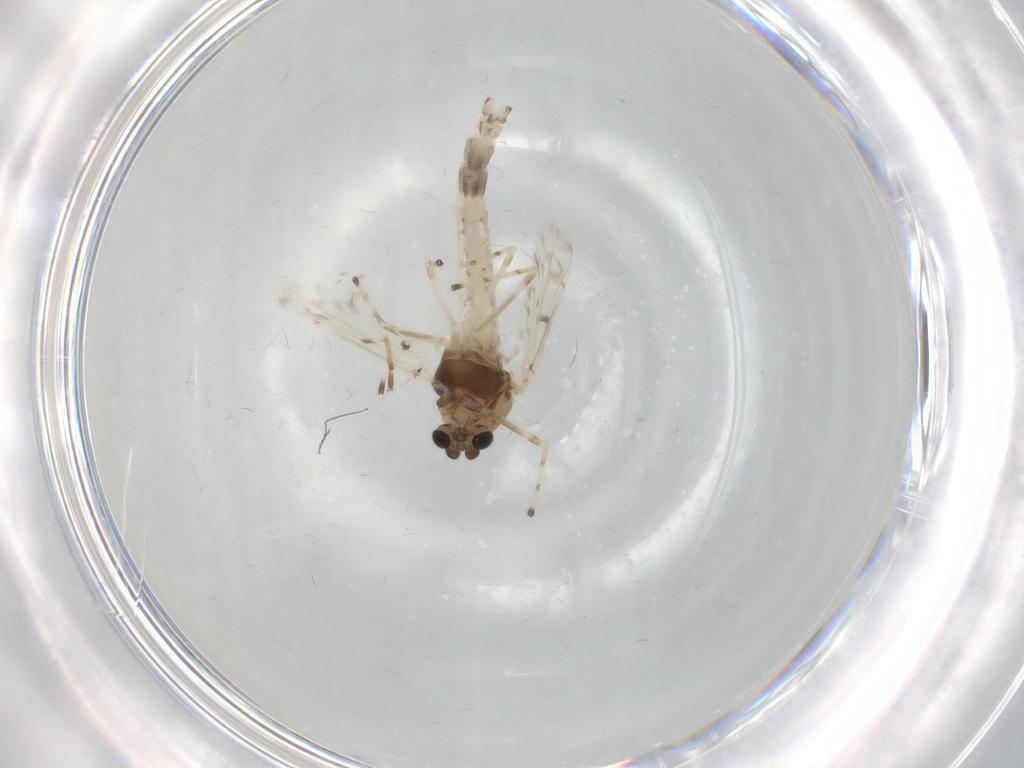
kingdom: Animalia
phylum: Arthropoda
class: Insecta
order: Diptera
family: Chironomidae
